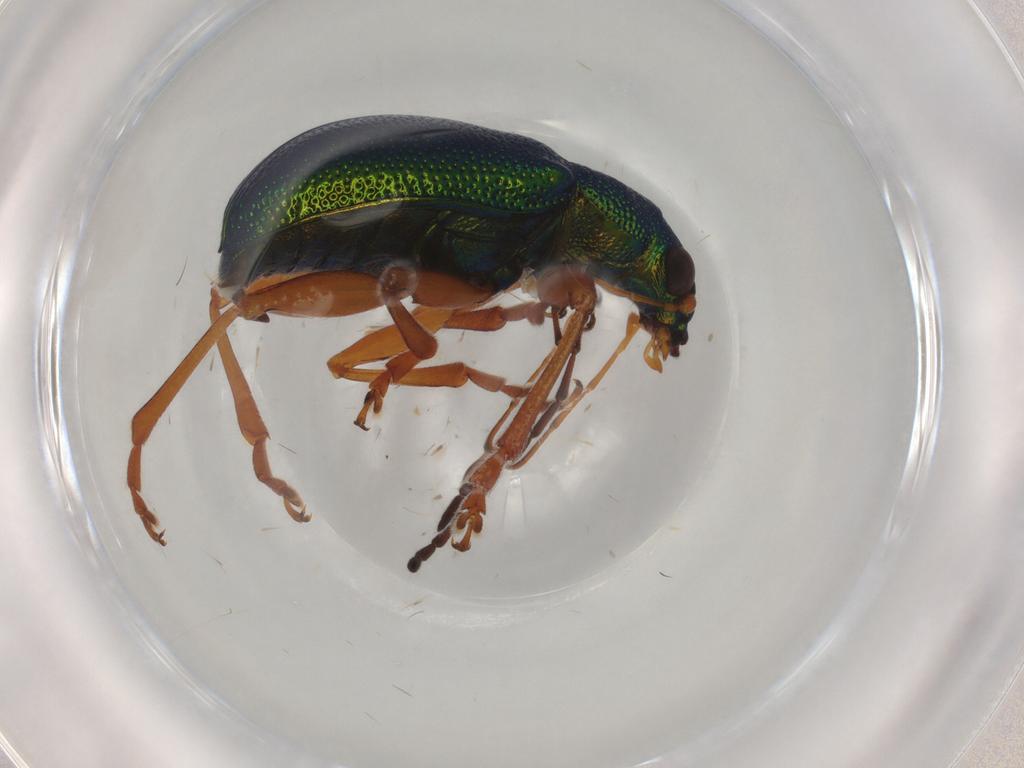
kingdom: Animalia
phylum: Arthropoda
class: Insecta
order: Coleoptera
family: Chrysomelidae
